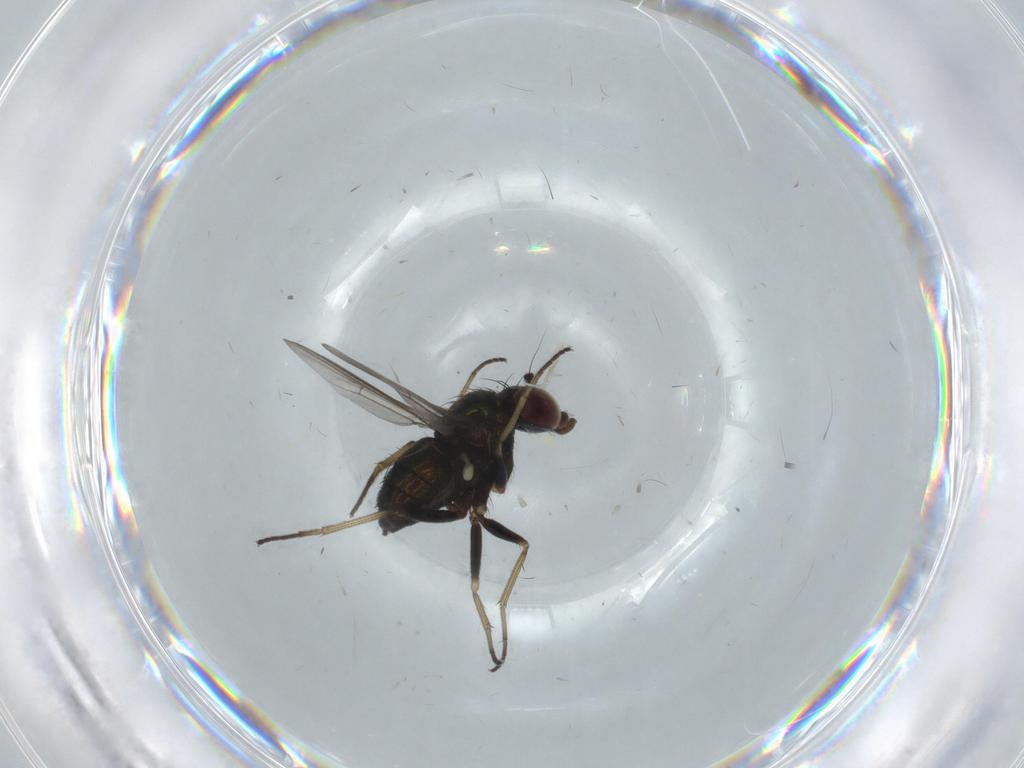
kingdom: Animalia
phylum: Arthropoda
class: Insecta
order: Diptera
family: Dolichopodidae
